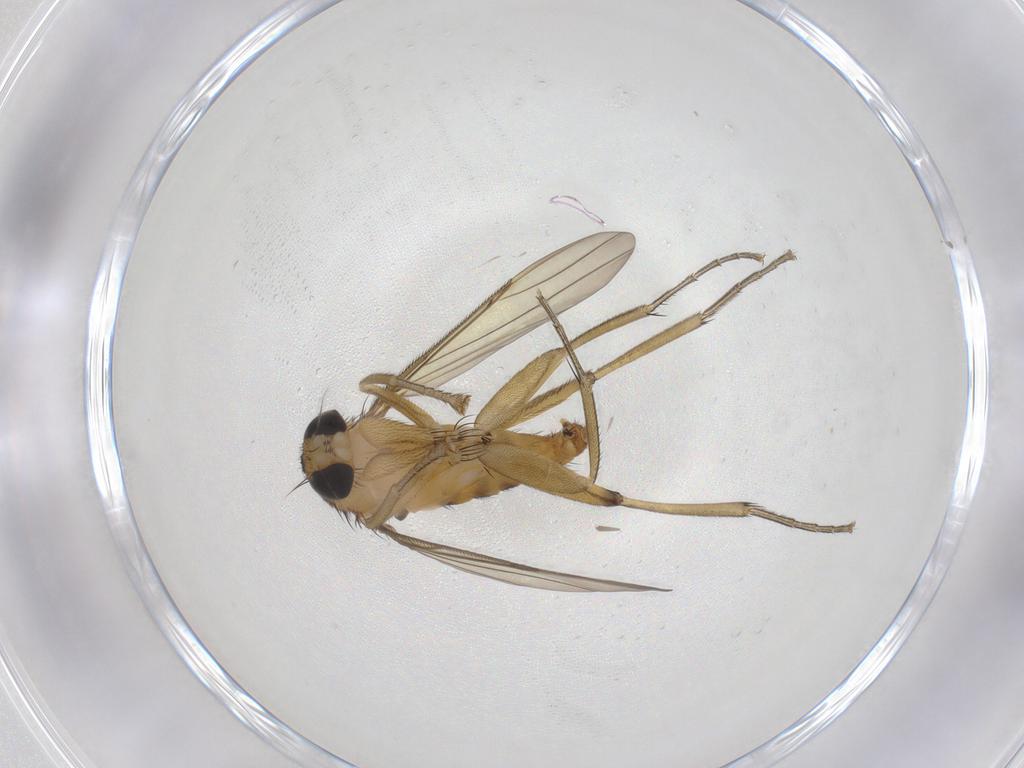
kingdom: Animalia
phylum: Arthropoda
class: Insecta
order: Diptera
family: Phoridae
